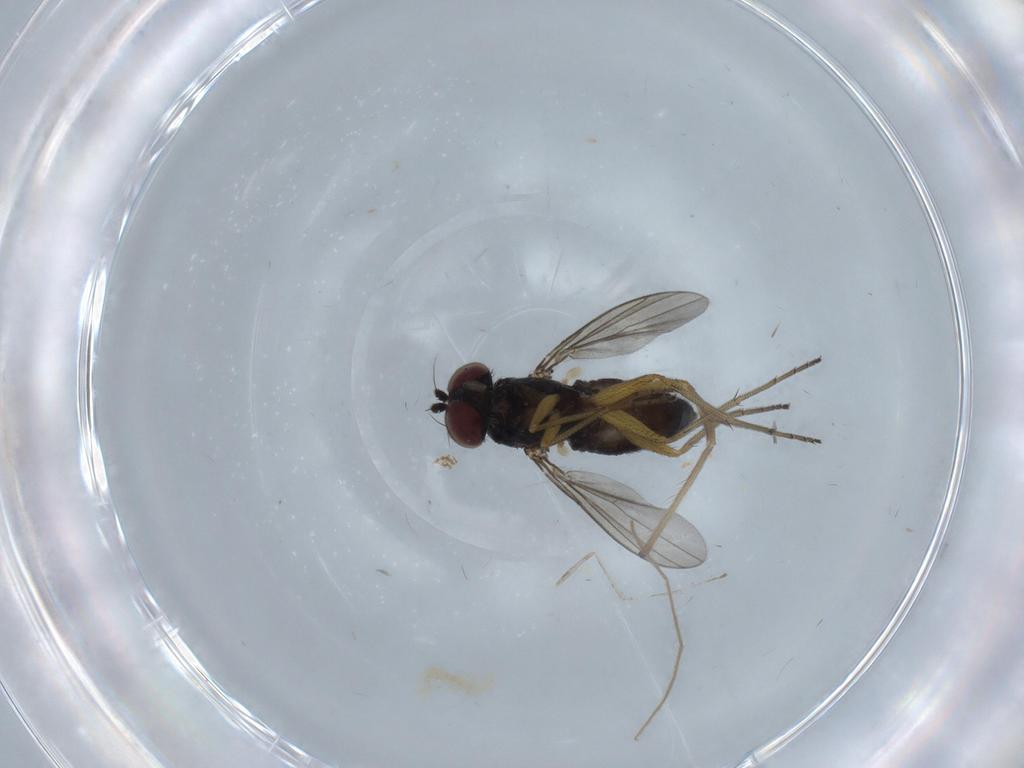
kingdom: Animalia
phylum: Arthropoda
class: Insecta
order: Diptera
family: Dolichopodidae
